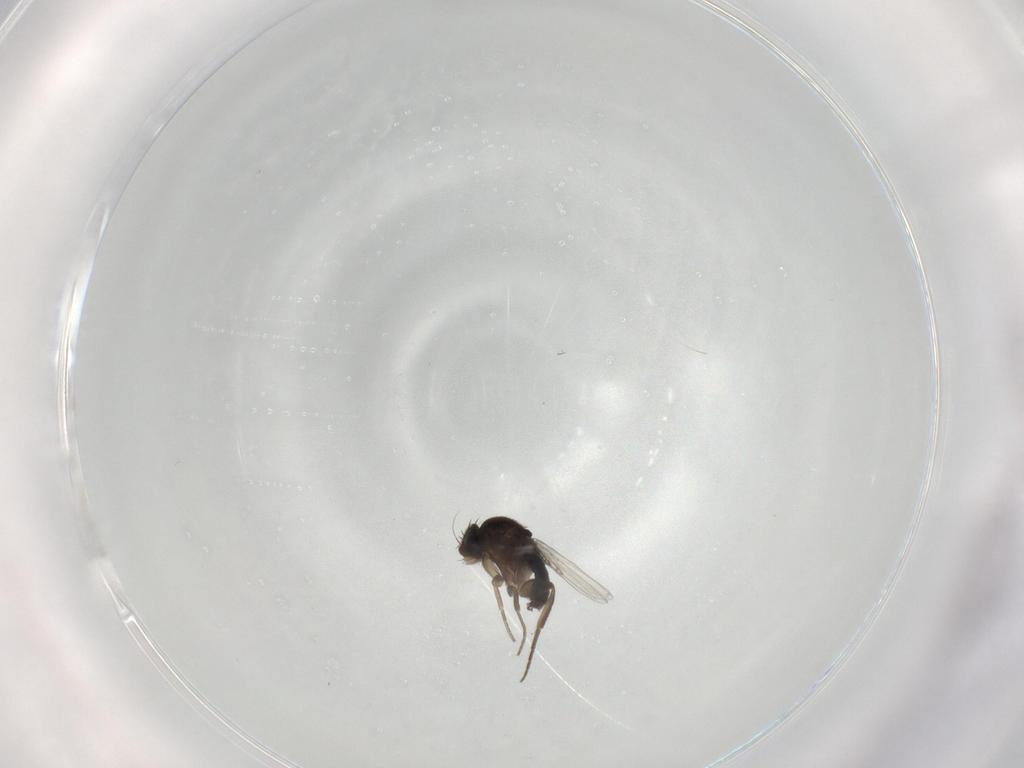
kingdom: Animalia
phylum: Arthropoda
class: Insecta
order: Diptera
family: Phoridae
